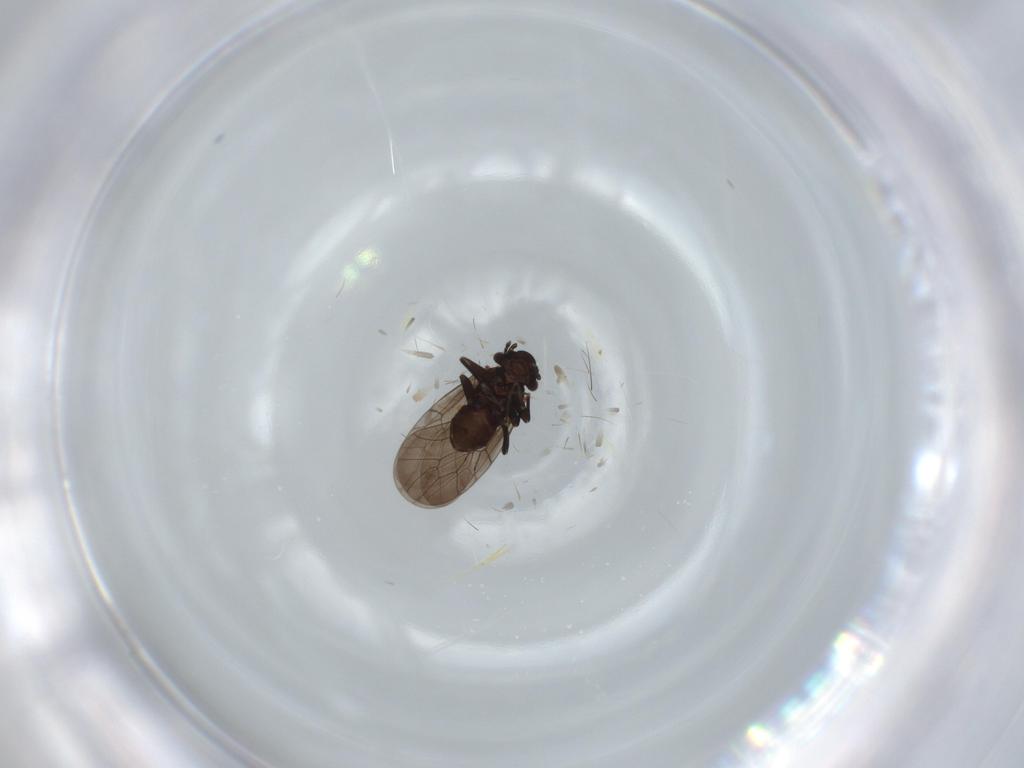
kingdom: Animalia
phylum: Arthropoda
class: Insecta
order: Psocodea
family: Lepidopsocidae
